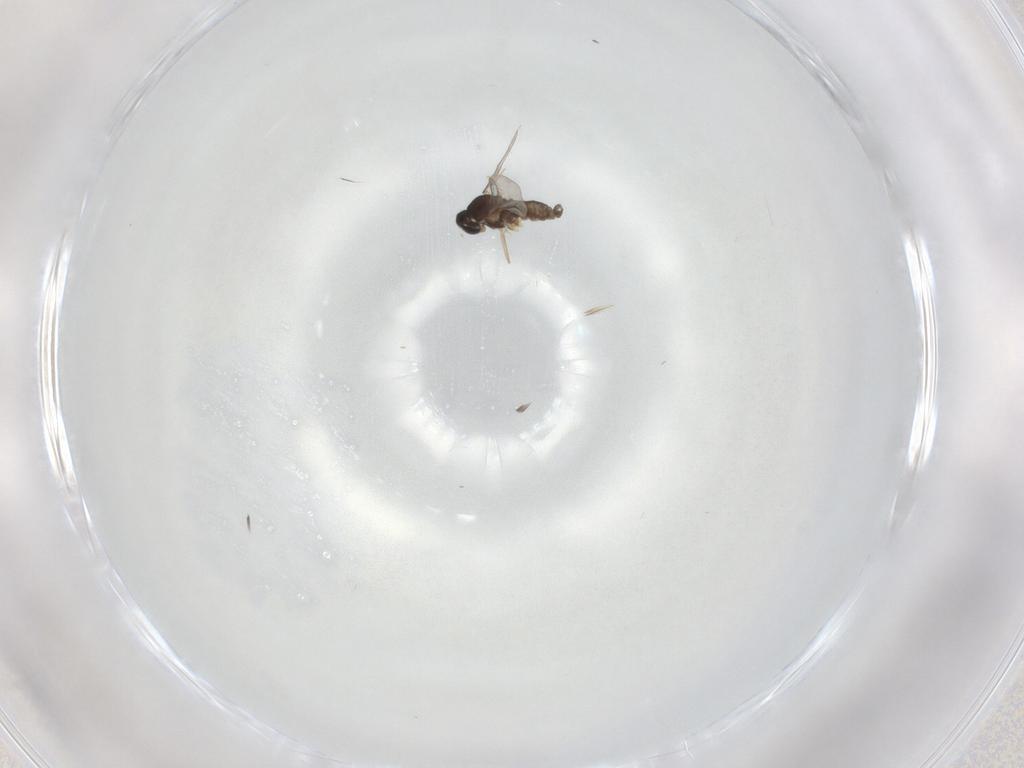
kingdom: Animalia
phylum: Arthropoda
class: Insecta
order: Diptera
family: Cecidomyiidae
